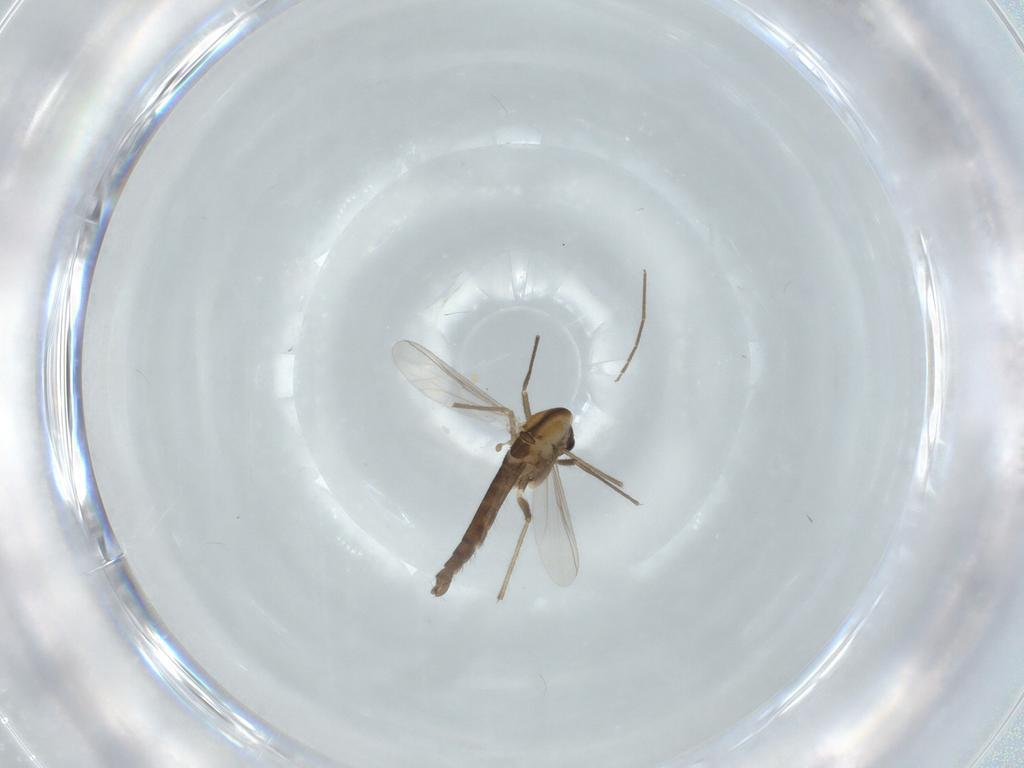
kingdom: Animalia
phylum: Arthropoda
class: Insecta
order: Diptera
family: Chironomidae
